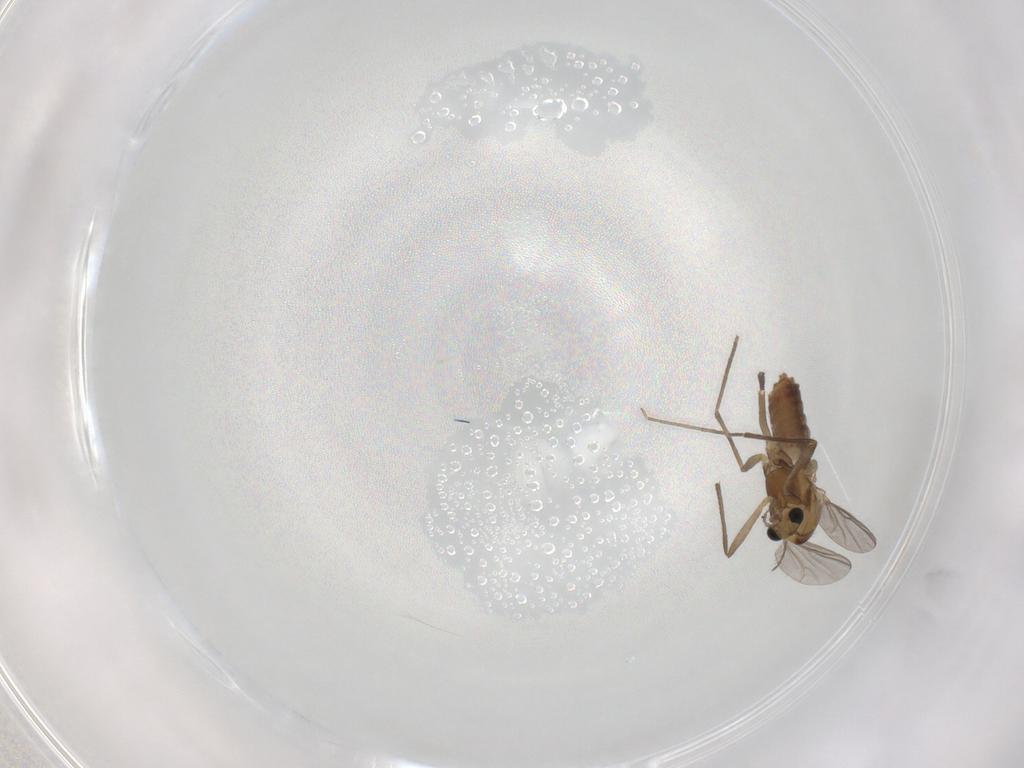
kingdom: Animalia
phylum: Arthropoda
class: Insecta
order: Diptera
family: Chironomidae
